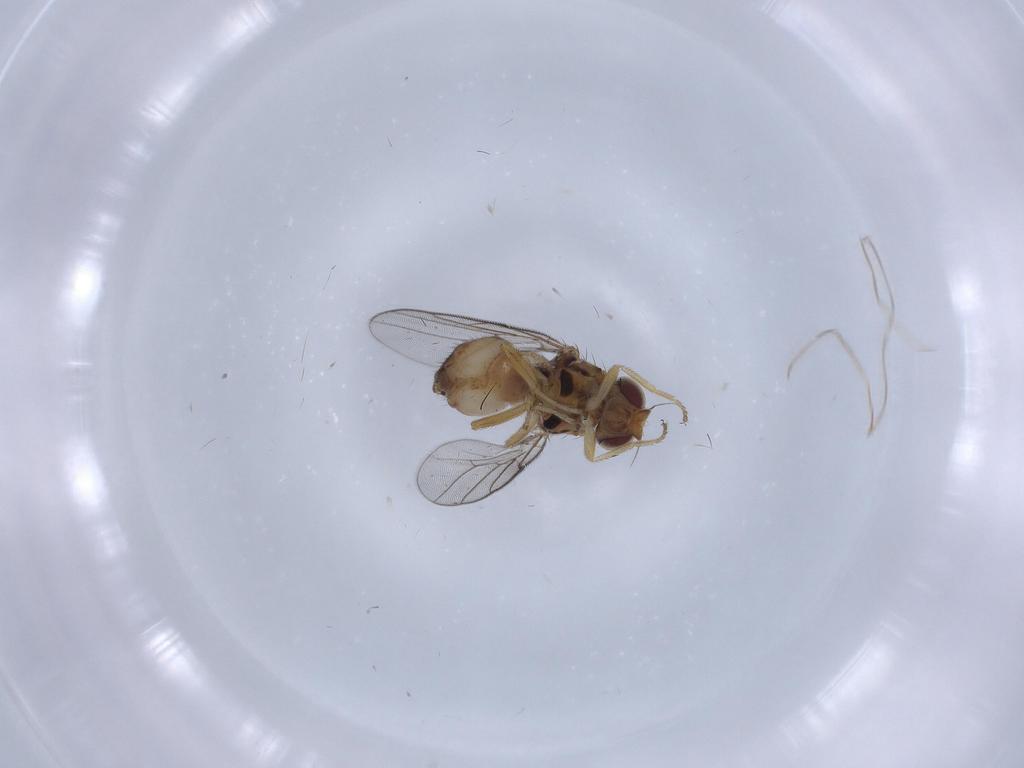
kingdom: Animalia
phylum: Arthropoda
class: Insecta
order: Diptera
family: Chloropidae
